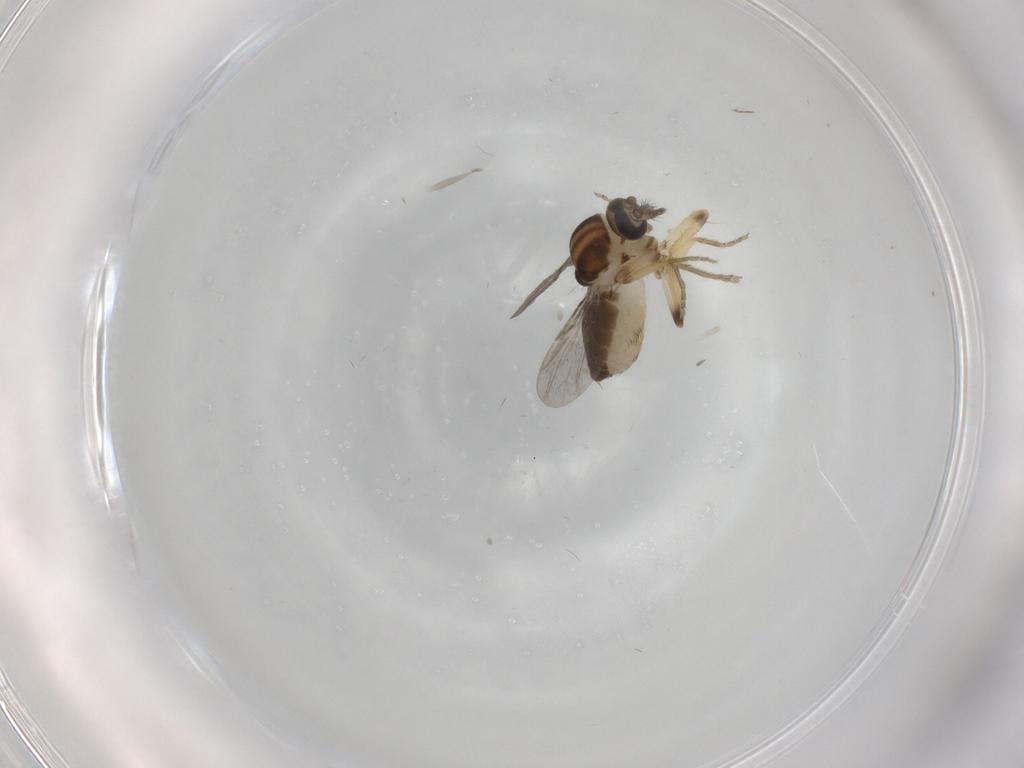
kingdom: Animalia
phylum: Arthropoda
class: Insecta
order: Diptera
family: Ceratopogonidae
